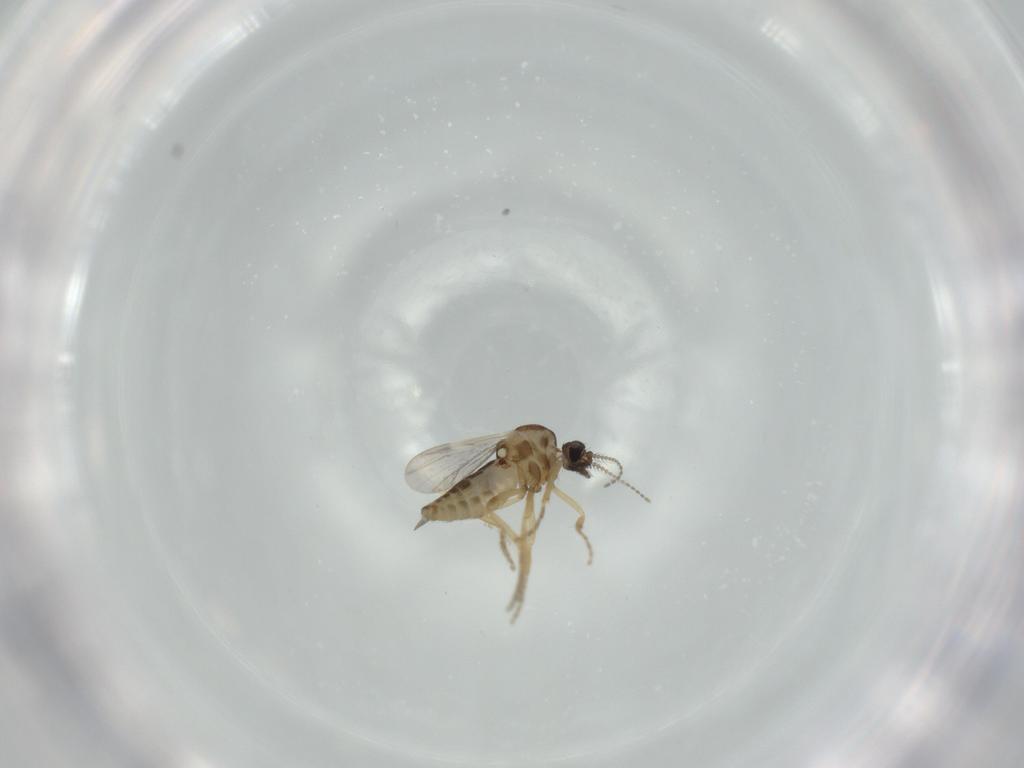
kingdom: Animalia
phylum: Arthropoda
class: Insecta
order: Diptera
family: Ceratopogonidae
